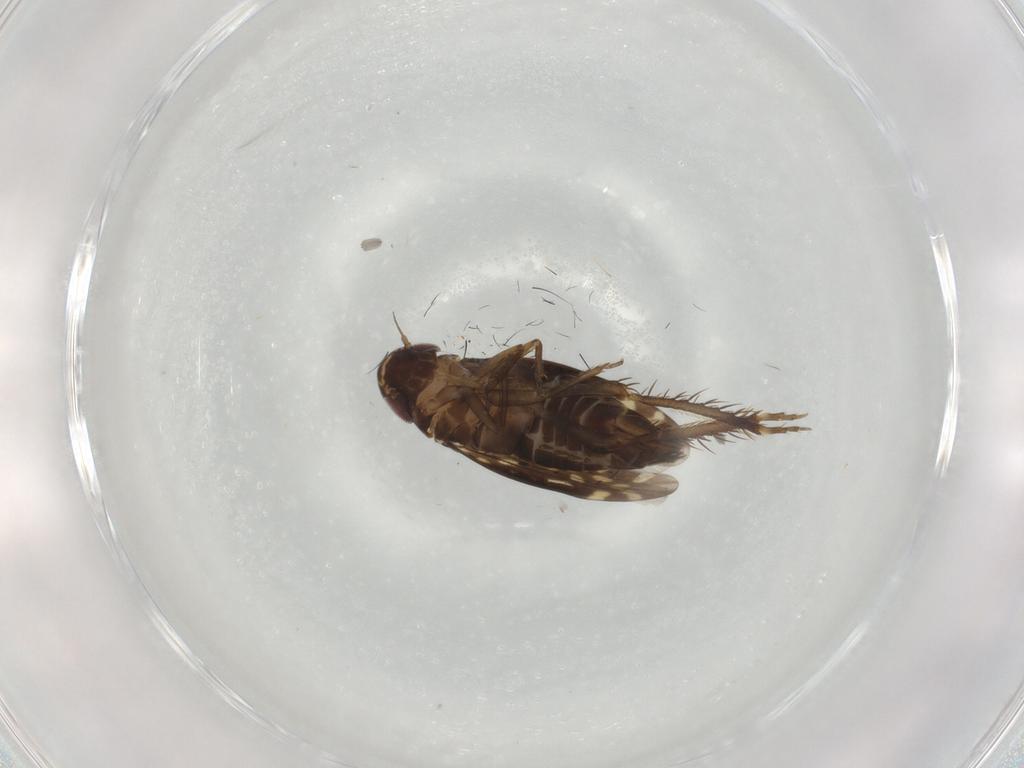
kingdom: Animalia
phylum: Arthropoda
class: Insecta
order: Hemiptera
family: Cicadellidae
